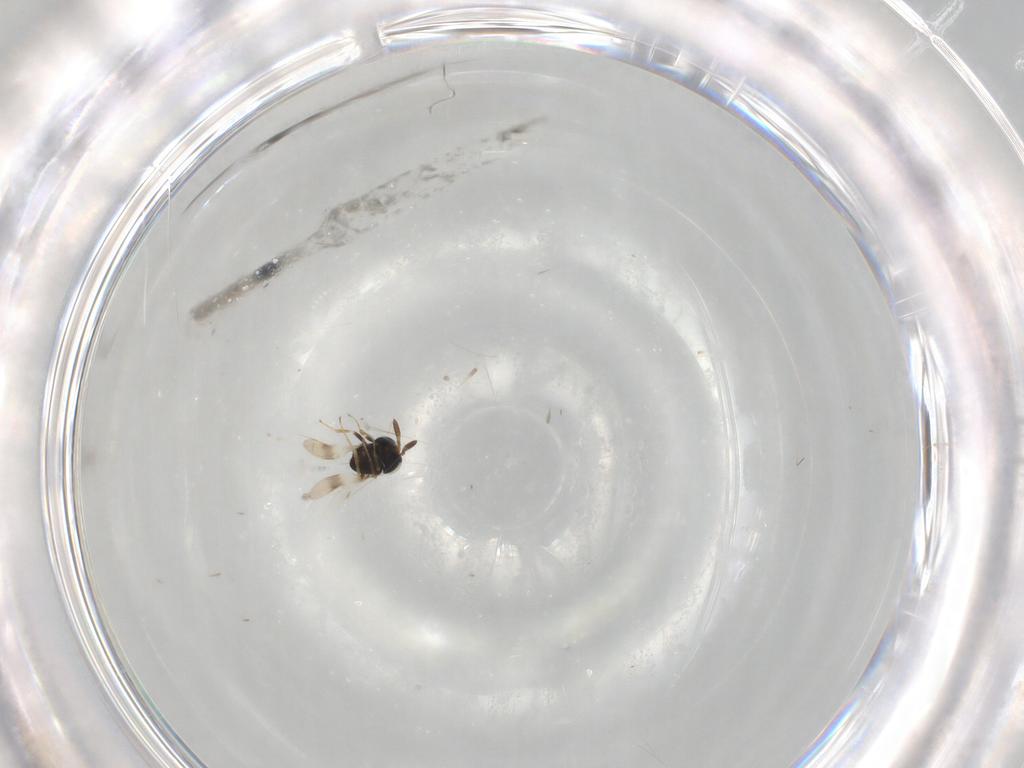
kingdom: Animalia
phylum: Arthropoda
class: Insecta
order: Hymenoptera
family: Scelionidae
